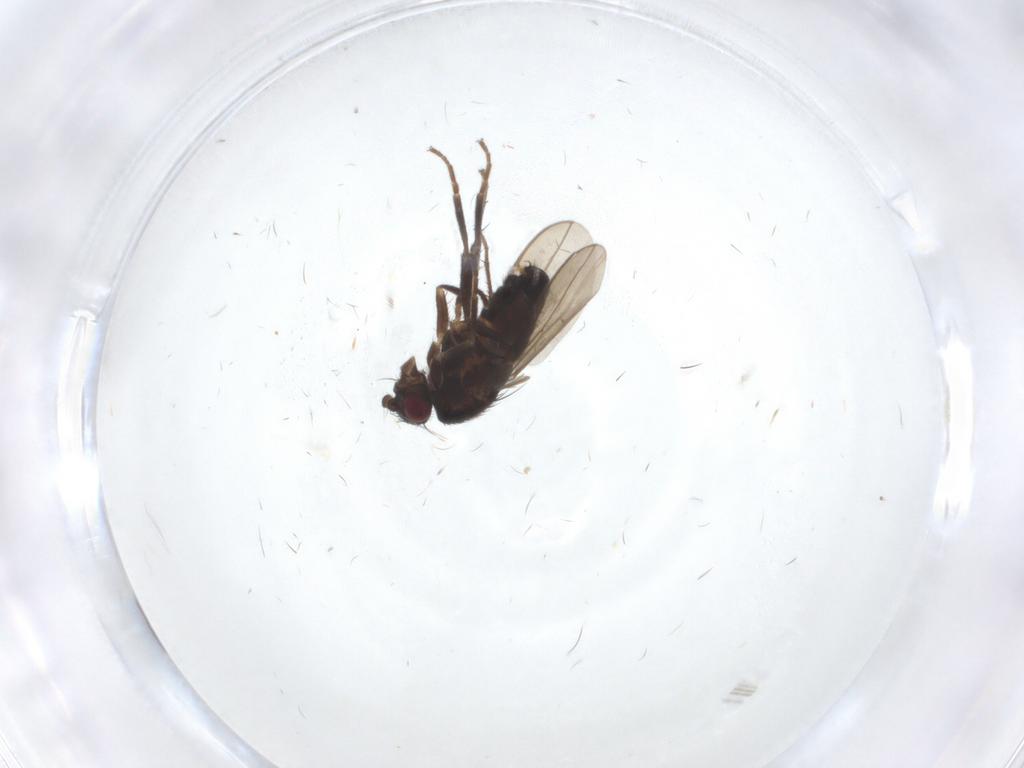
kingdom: Animalia
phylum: Arthropoda
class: Insecta
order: Diptera
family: Sphaeroceridae
